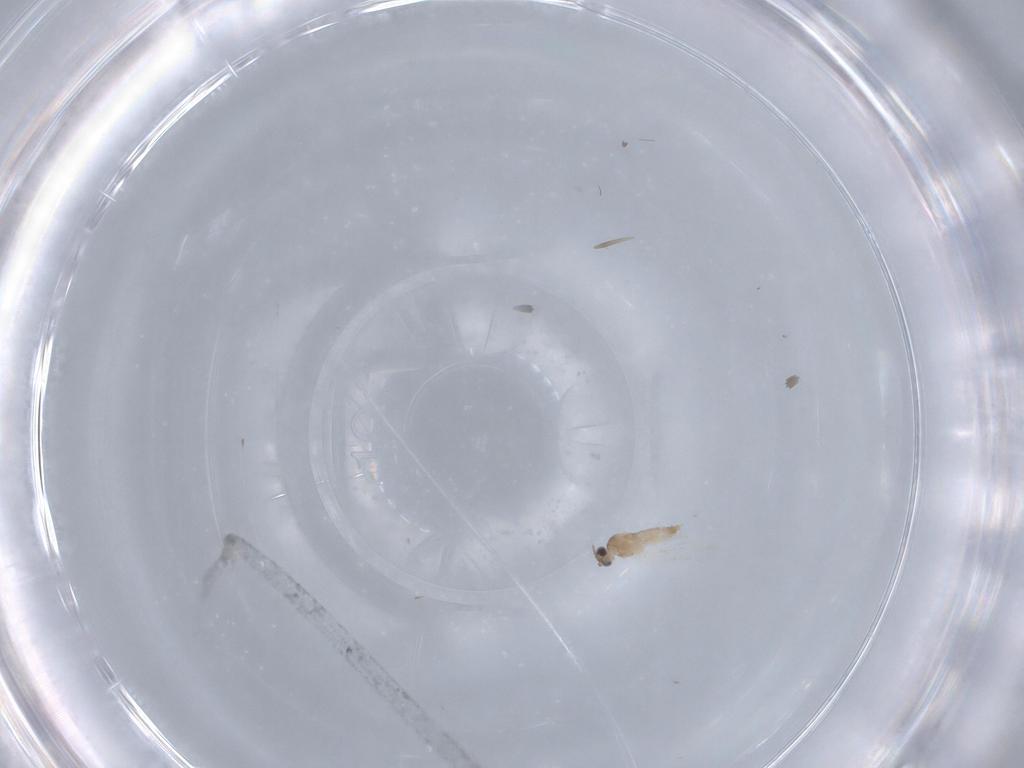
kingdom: Animalia
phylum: Arthropoda
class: Insecta
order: Diptera
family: Cecidomyiidae
